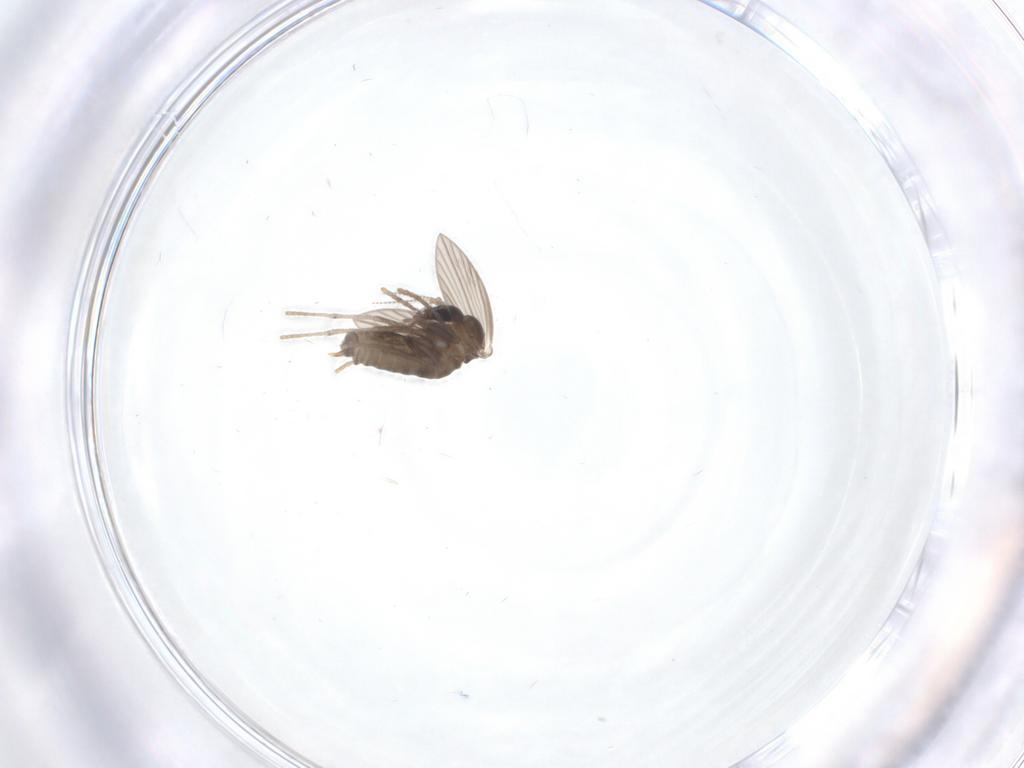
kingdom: Animalia
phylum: Arthropoda
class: Insecta
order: Diptera
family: Psychodidae
